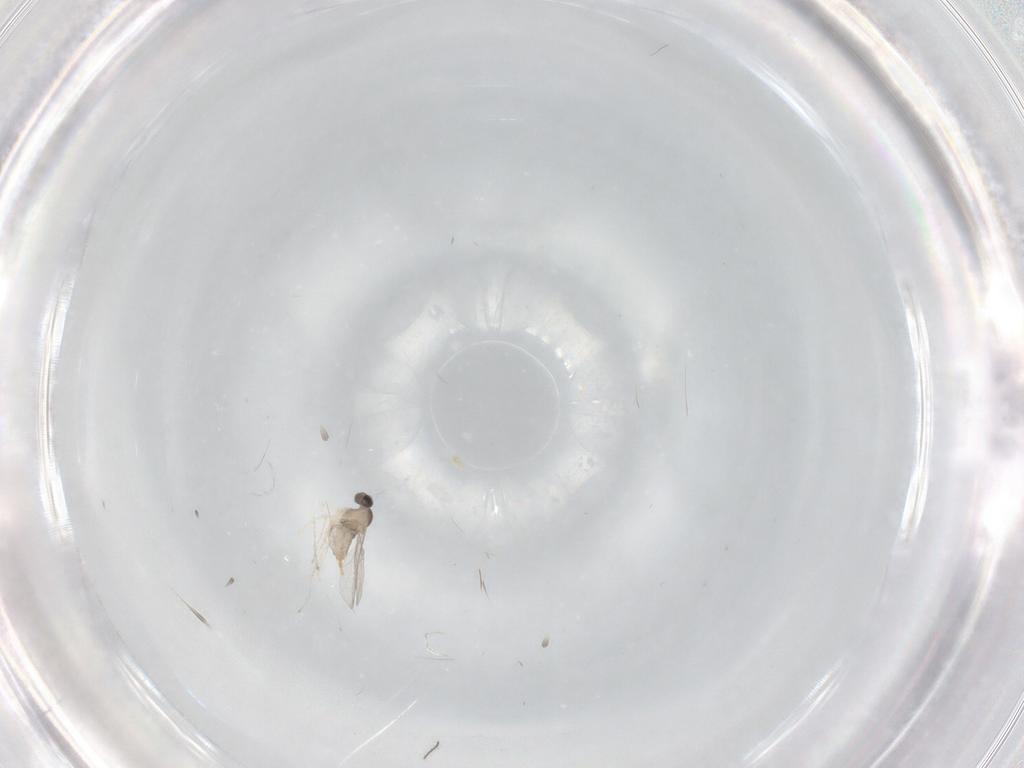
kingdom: Animalia
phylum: Arthropoda
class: Insecta
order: Diptera
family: Cecidomyiidae
